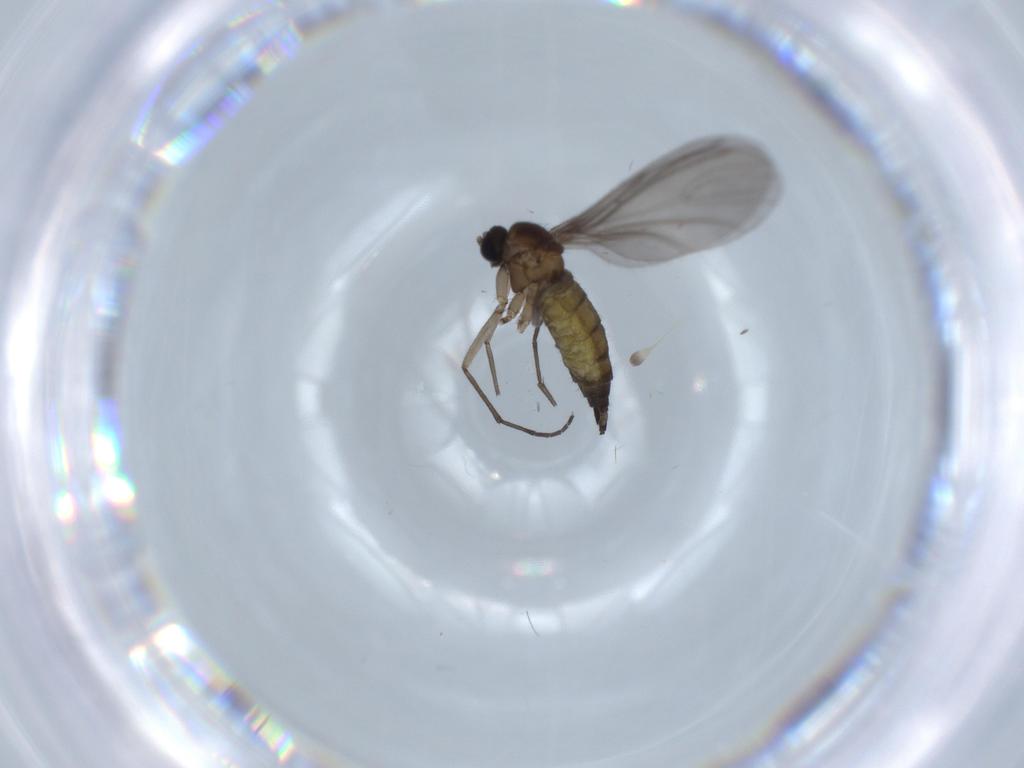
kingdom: Animalia
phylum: Arthropoda
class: Insecta
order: Diptera
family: Sciaridae
